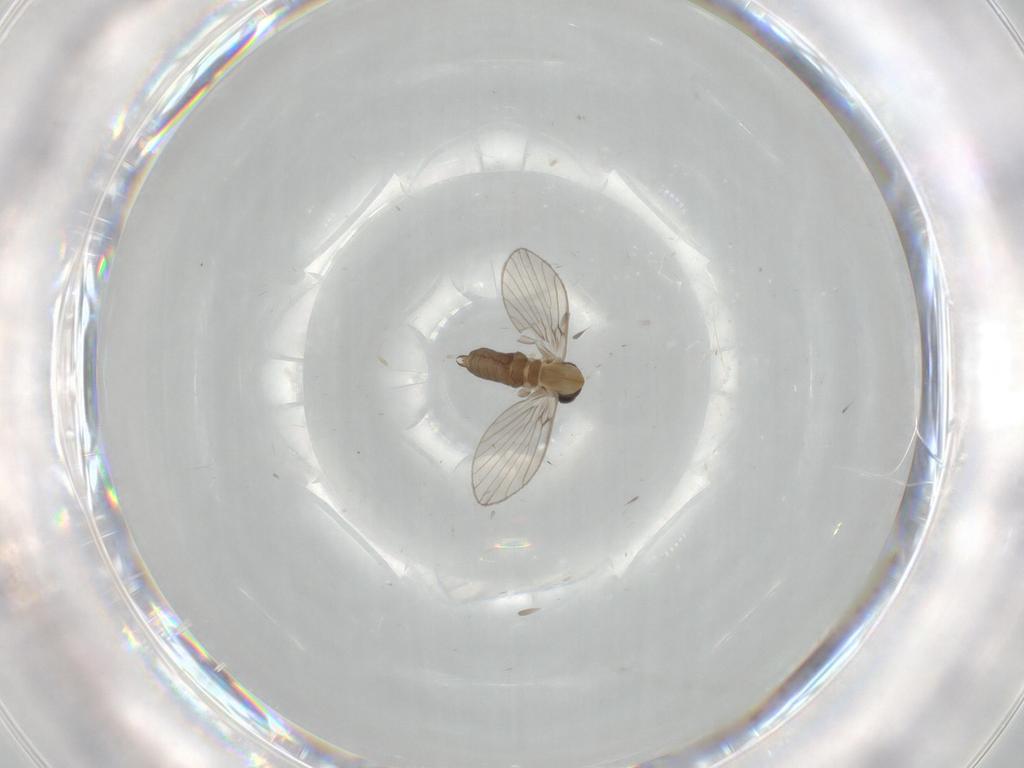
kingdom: Animalia
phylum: Arthropoda
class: Insecta
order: Diptera
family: Psychodidae
